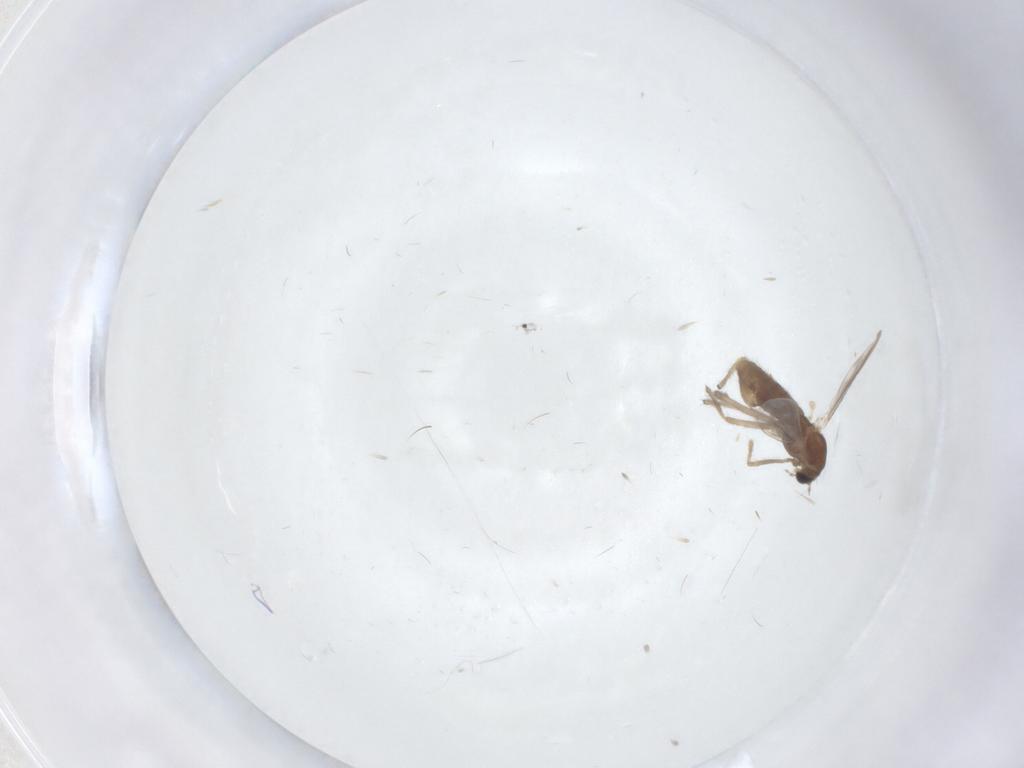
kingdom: Animalia
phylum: Arthropoda
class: Insecta
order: Diptera
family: Chironomidae
